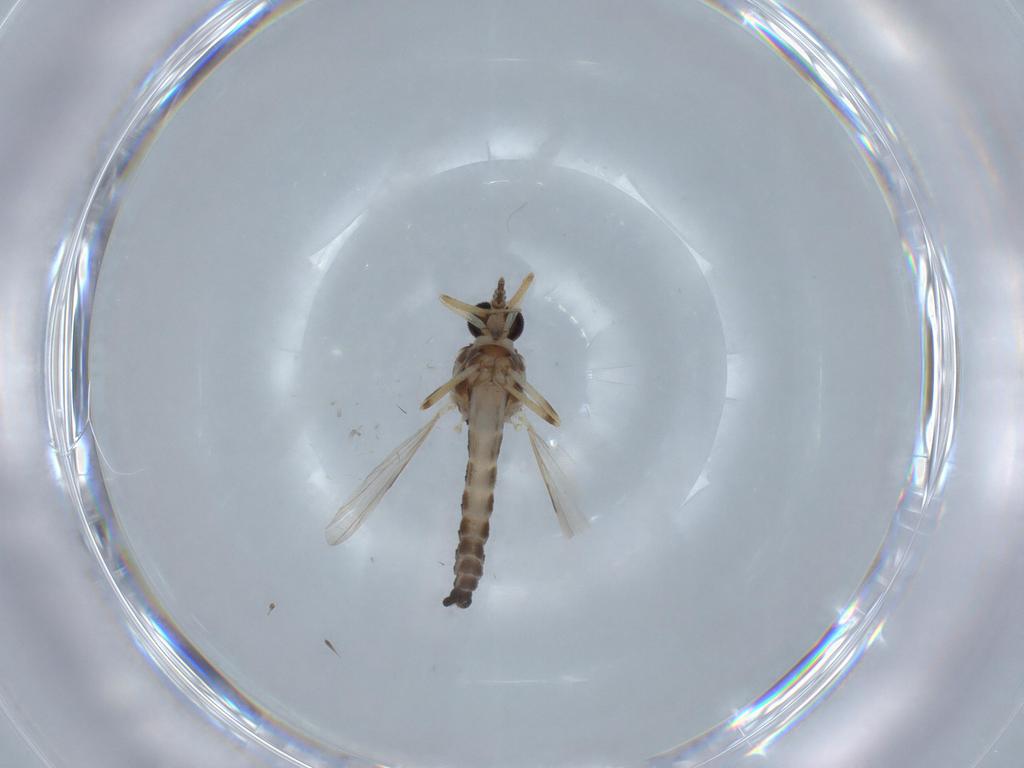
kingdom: Animalia
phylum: Arthropoda
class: Insecta
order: Diptera
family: Ceratopogonidae
